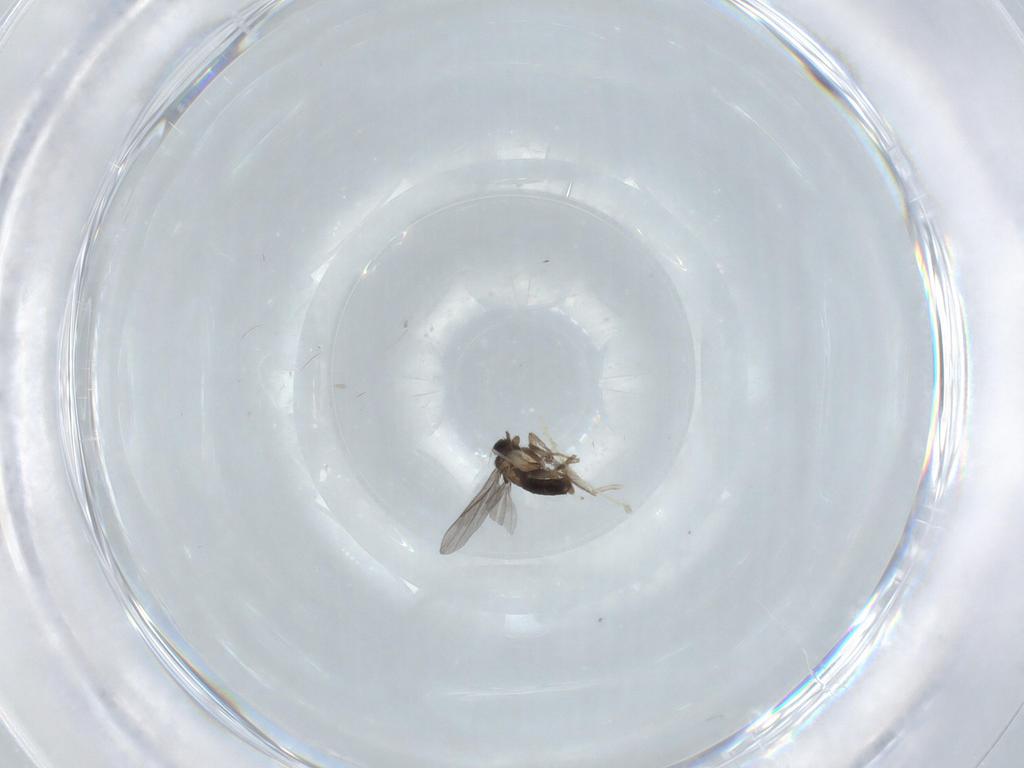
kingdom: Animalia
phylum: Arthropoda
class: Insecta
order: Diptera
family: Chironomidae
